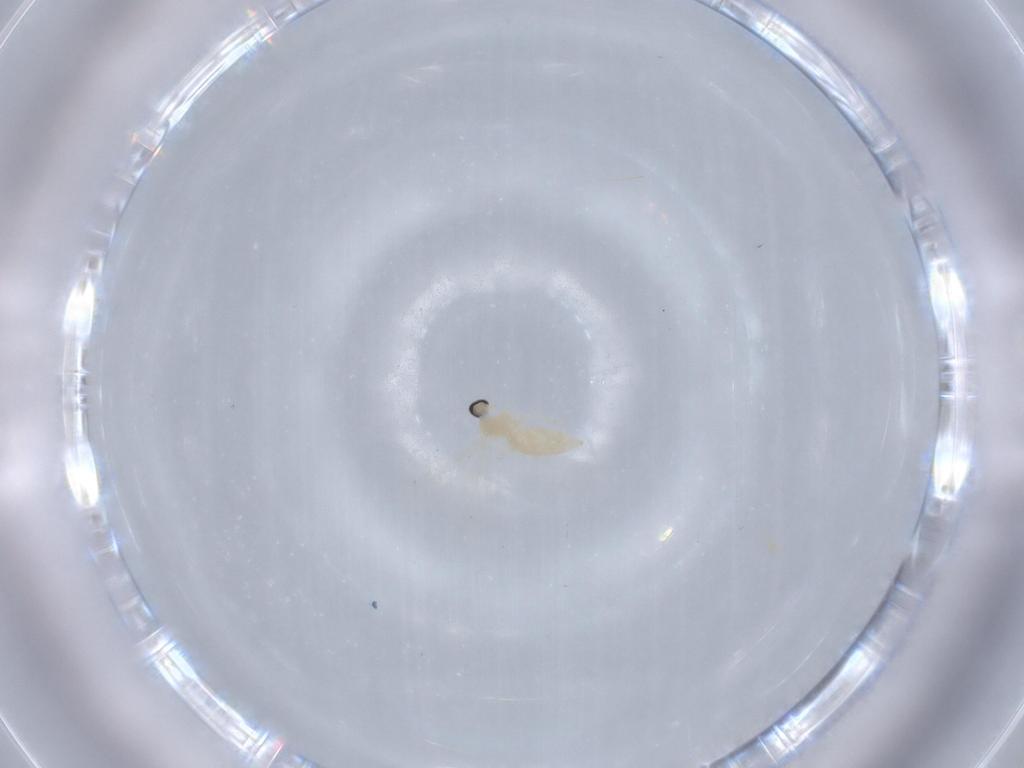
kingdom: Animalia
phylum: Arthropoda
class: Insecta
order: Diptera
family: Cecidomyiidae
